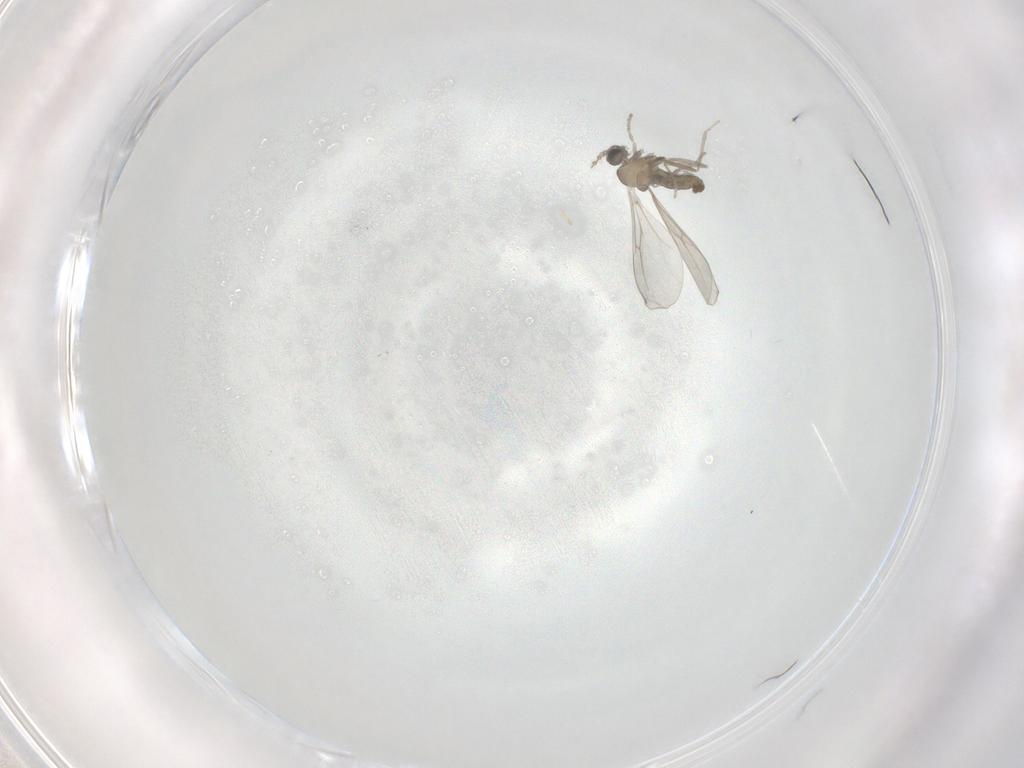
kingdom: Animalia
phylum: Arthropoda
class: Insecta
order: Diptera
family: Cecidomyiidae
